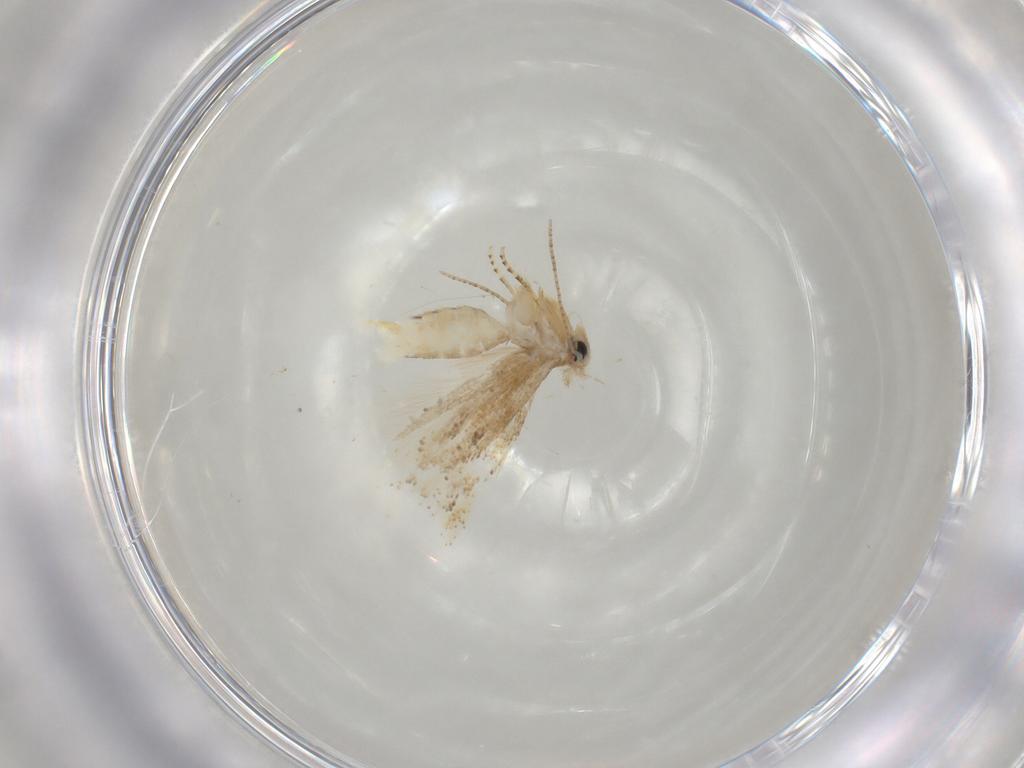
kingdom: Animalia
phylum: Arthropoda
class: Insecta
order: Lepidoptera
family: Bucculatricidae
